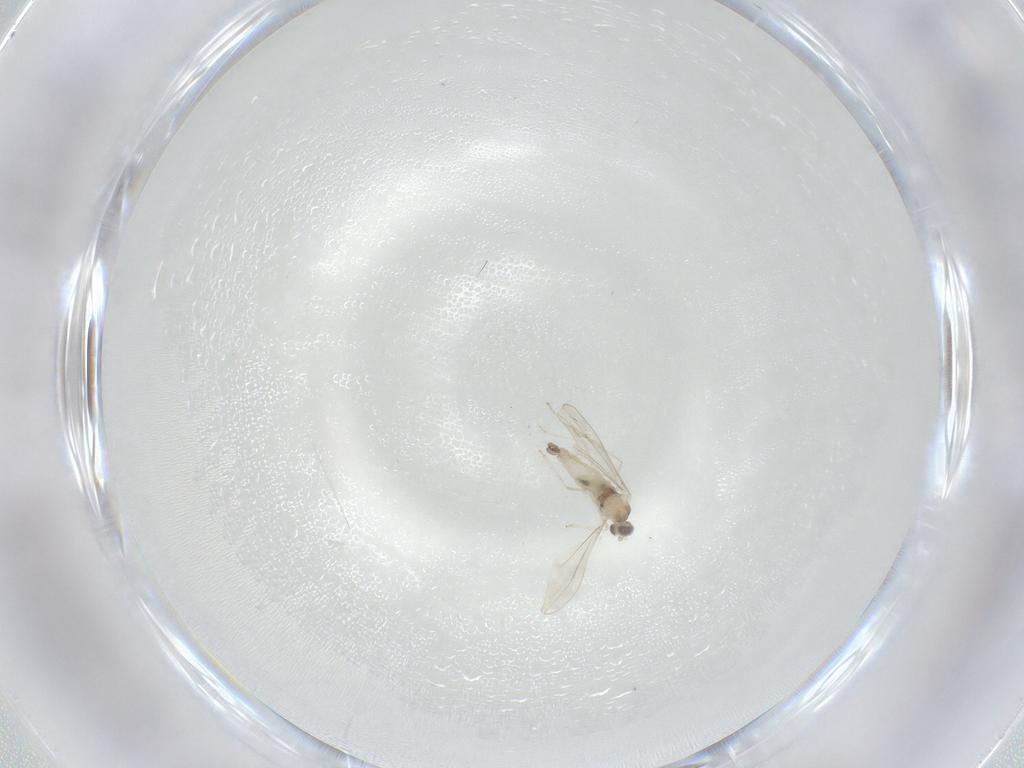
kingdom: Animalia
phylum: Arthropoda
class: Insecta
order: Diptera
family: Cecidomyiidae
